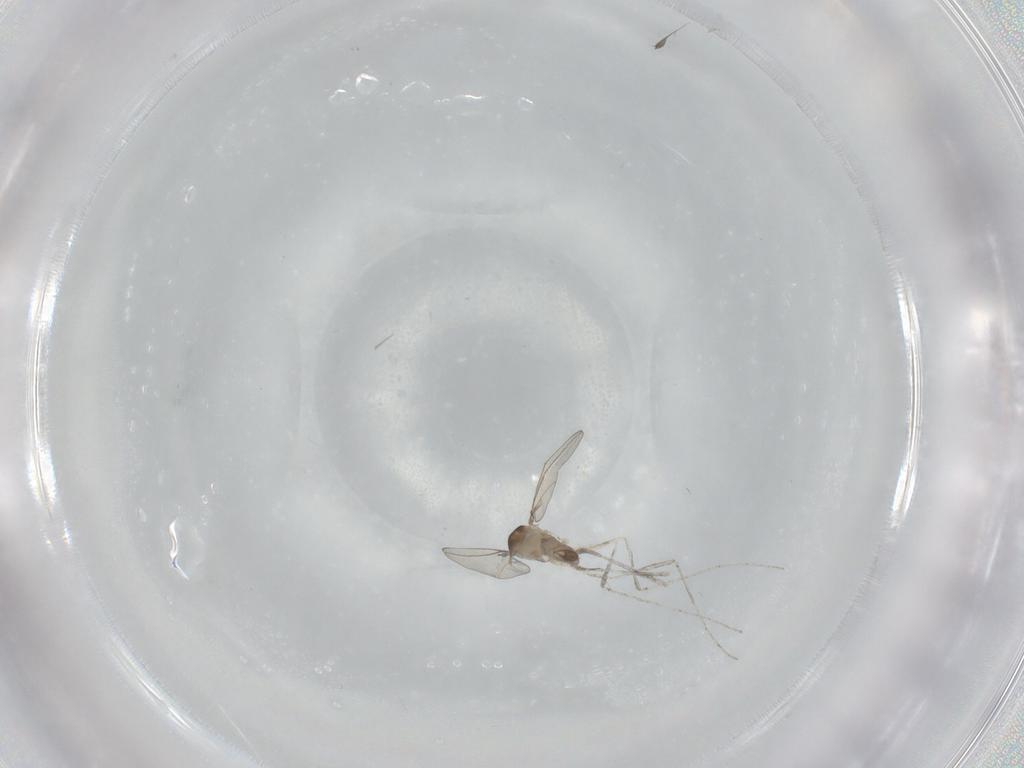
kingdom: Animalia
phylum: Arthropoda
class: Insecta
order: Diptera
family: Cecidomyiidae
